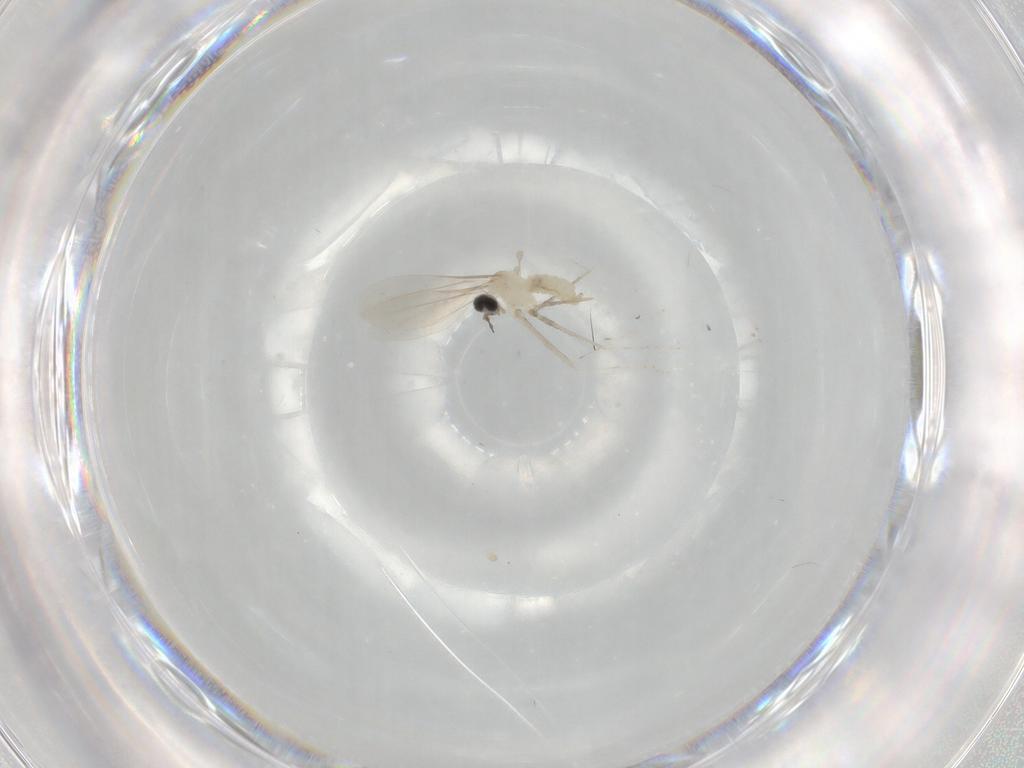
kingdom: Animalia
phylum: Arthropoda
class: Insecta
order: Diptera
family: Cecidomyiidae
